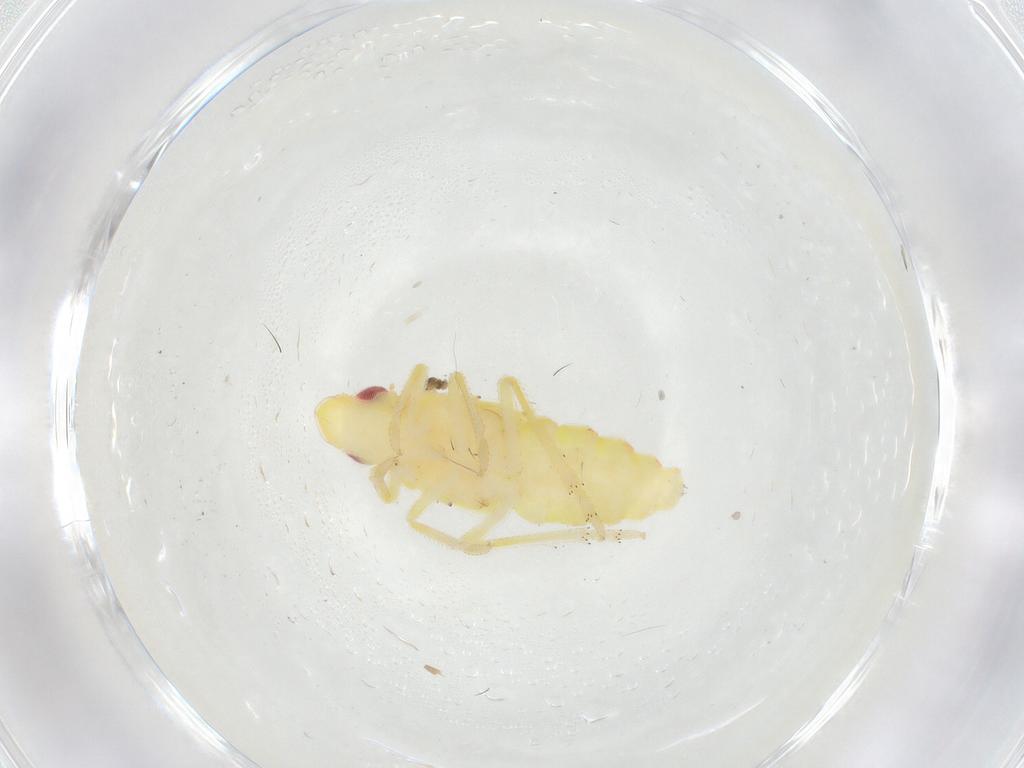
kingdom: Animalia
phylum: Arthropoda
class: Insecta
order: Hemiptera
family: Tropiduchidae
